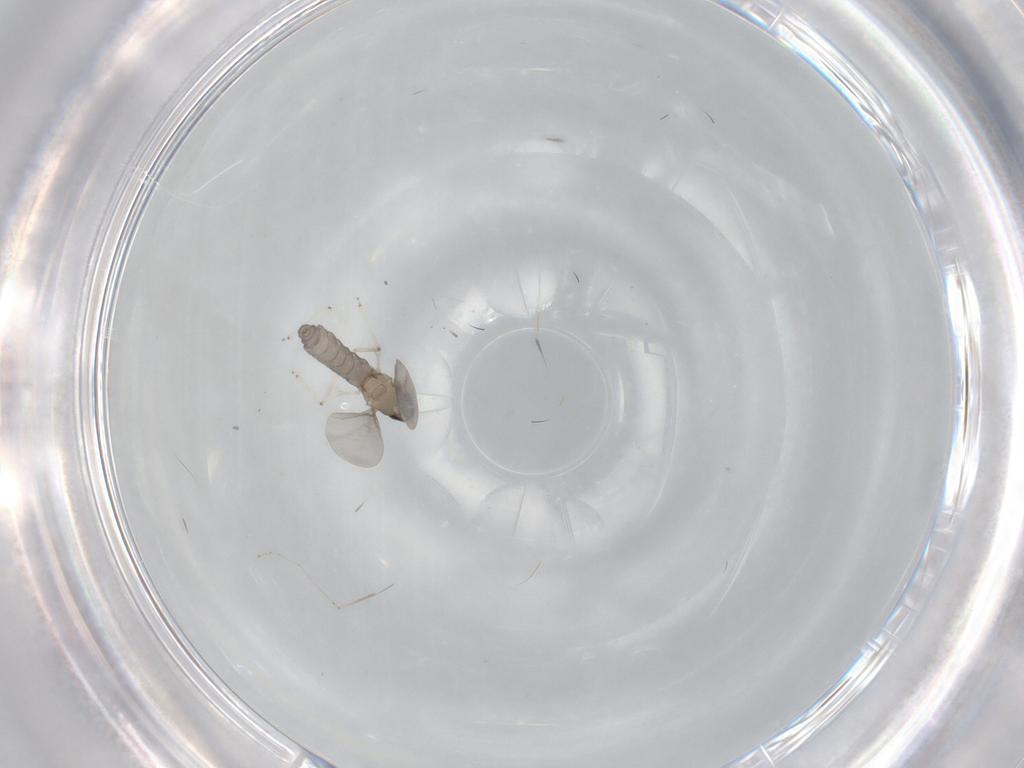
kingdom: Animalia
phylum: Arthropoda
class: Insecta
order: Diptera
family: Cecidomyiidae
